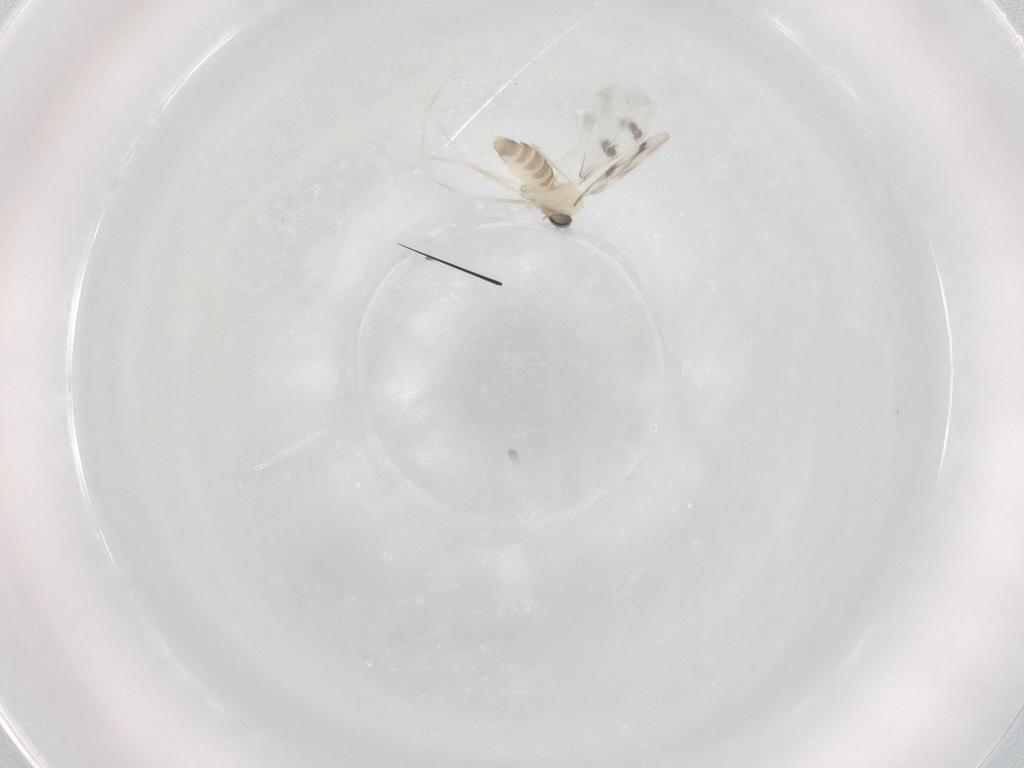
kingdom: Animalia
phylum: Arthropoda
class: Insecta
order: Diptera
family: Cecidomyiidae
